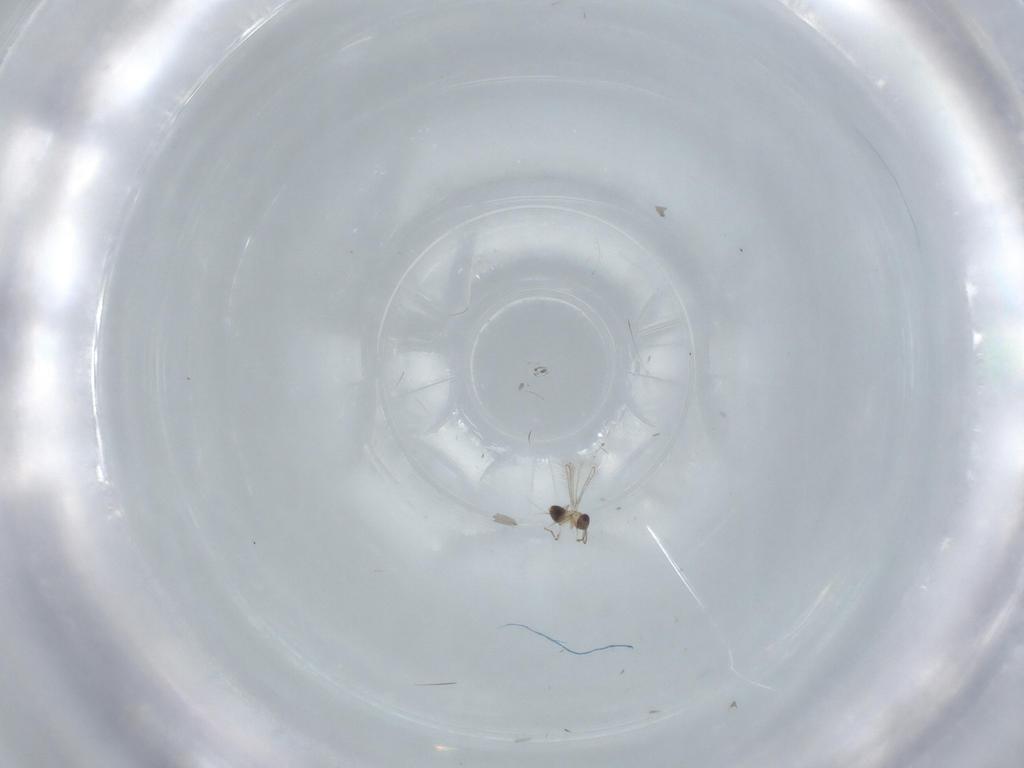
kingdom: Animalia
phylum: Arthropoda
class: Insecta
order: Hymenoptera
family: Mymaridae
